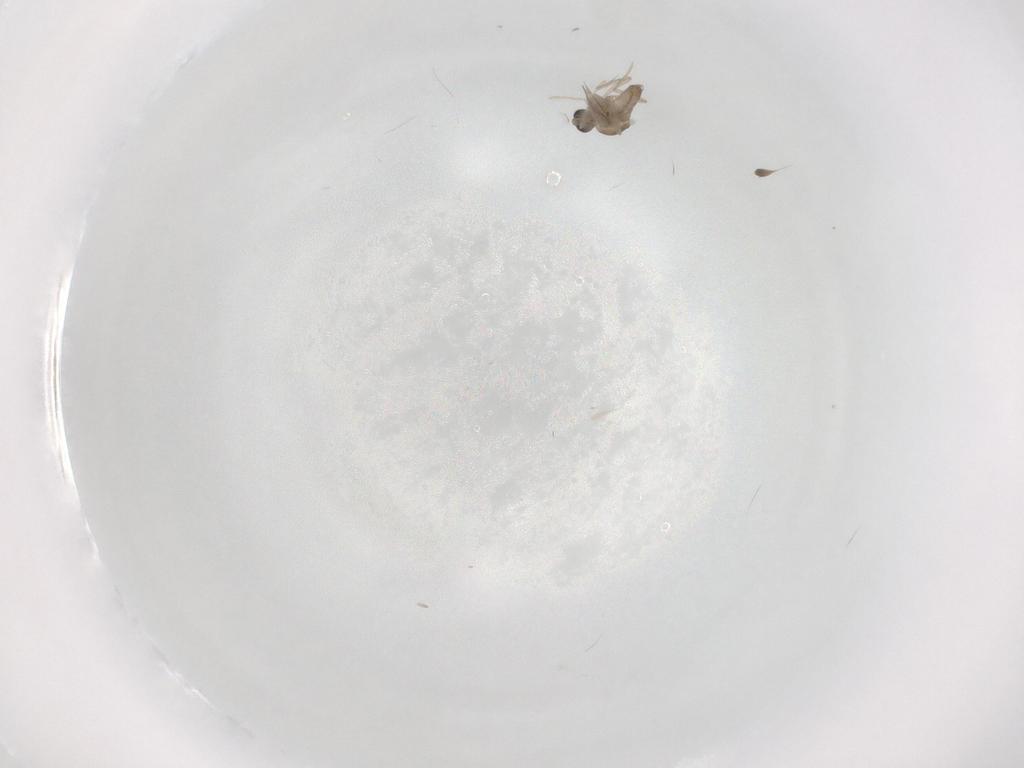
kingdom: Animalia
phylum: Arthropoda
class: Insecta
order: Diptera
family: Cecidomyiidae
